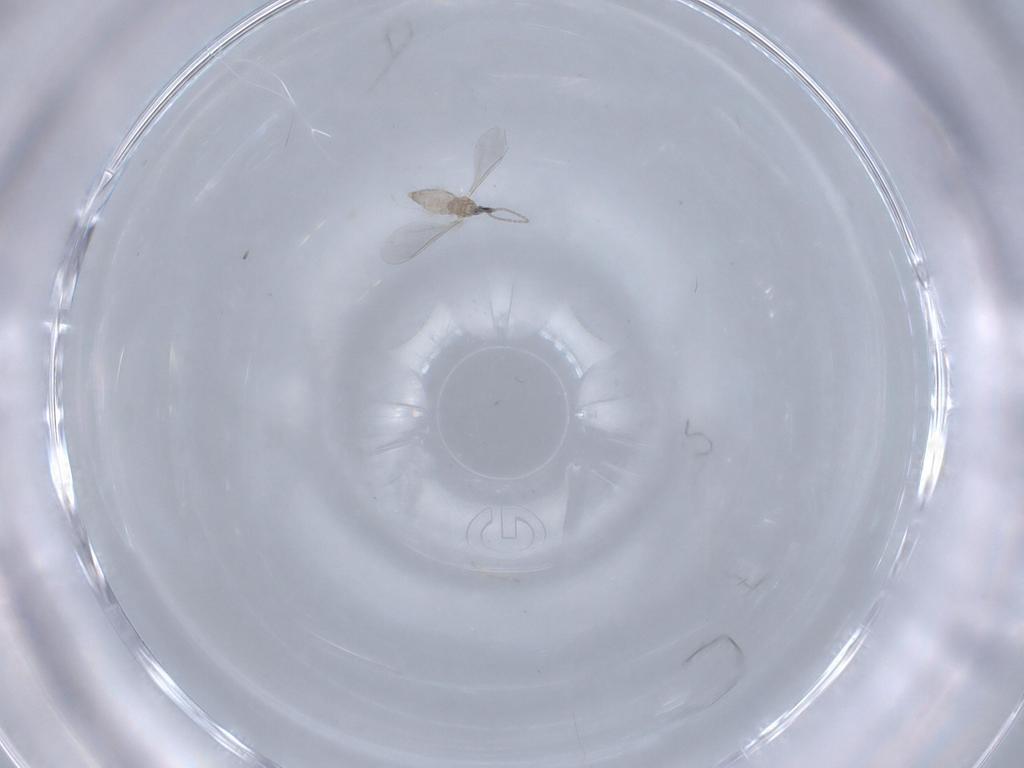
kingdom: Animalia
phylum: Arthropoda
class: Insecta
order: Diptera
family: Cecidomyiidae
